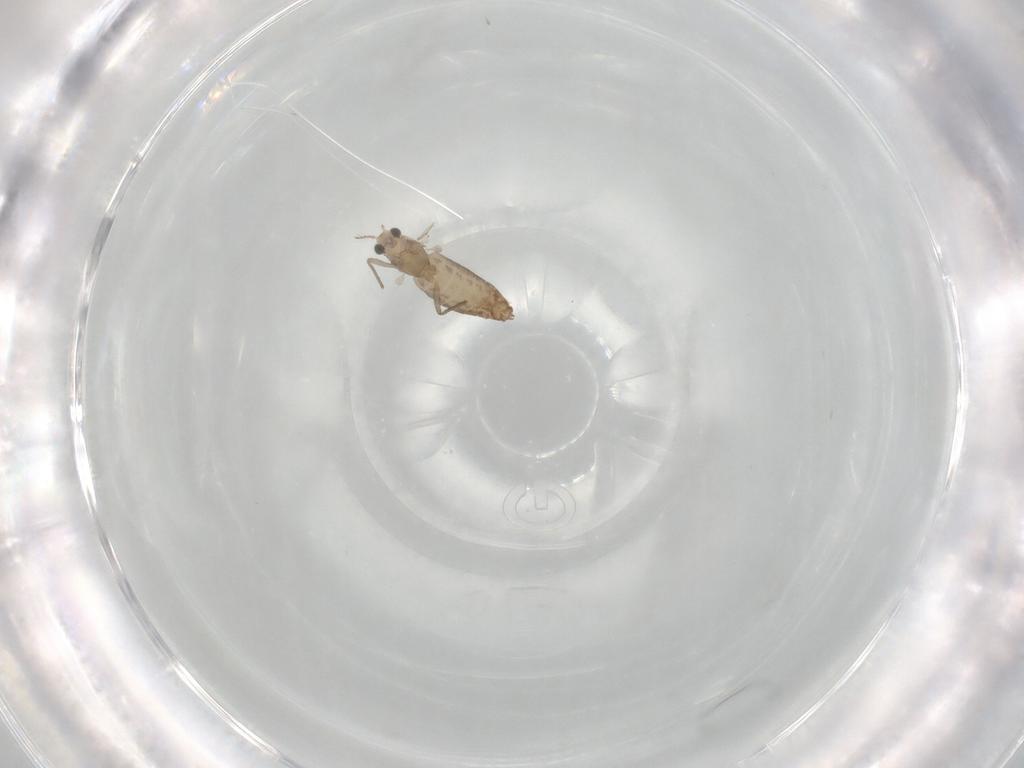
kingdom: Animalia
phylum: Arthropoda
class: Insecta
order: Diptera
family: Chironomidae
